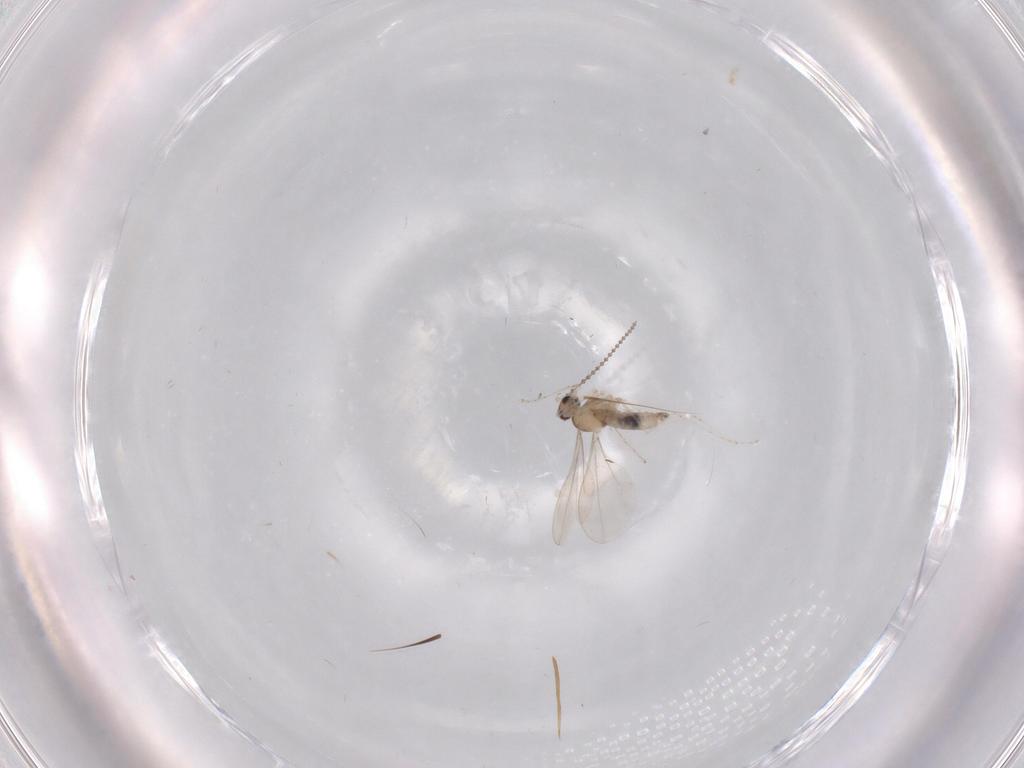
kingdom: Animalia
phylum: Arthropoda
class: Insecta
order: Diptera
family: Cecidomyiidae
